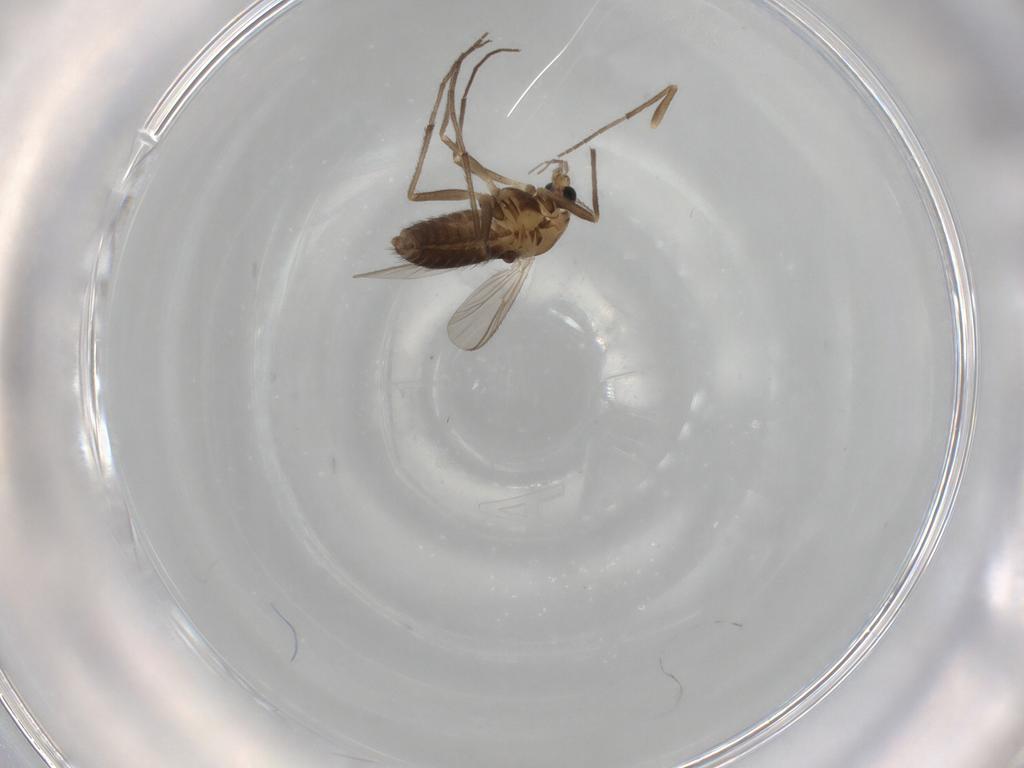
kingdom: Animalia
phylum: Arthropoda
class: Insecta
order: Diptera
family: Chironomidae
